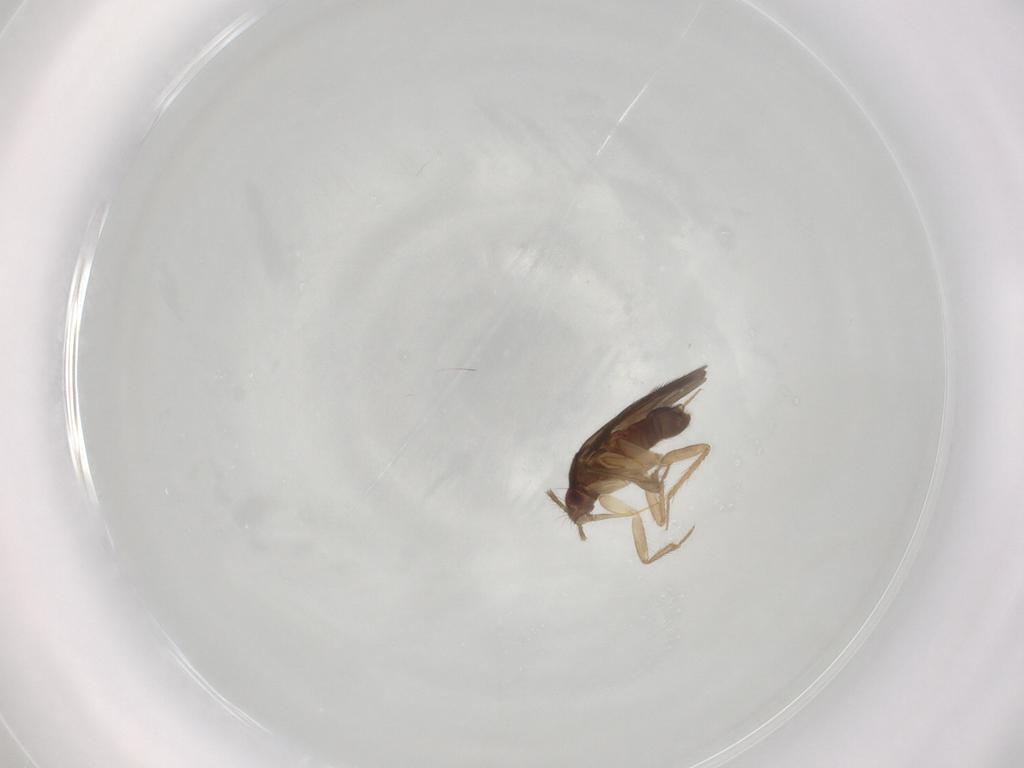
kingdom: Animalia
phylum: Arthropoda
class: Insecta
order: Hemiptera
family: Ceratocombidae
